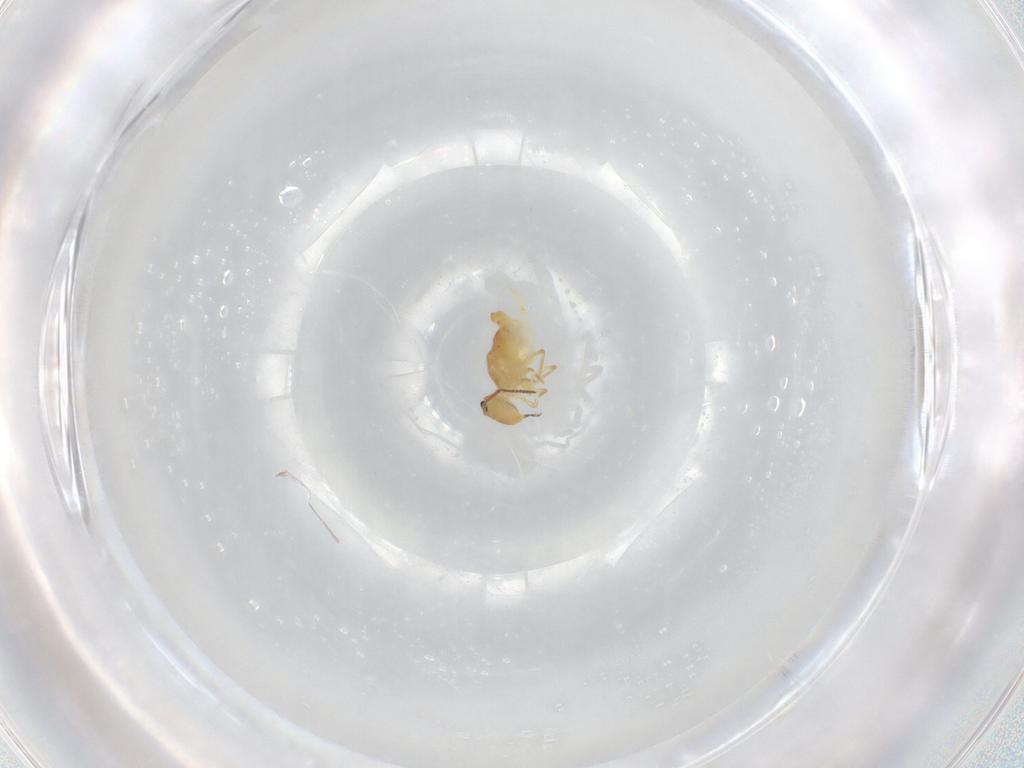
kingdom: Animalia
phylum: Arthropoda
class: Collembola
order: Symphypleona
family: Bourletiellidae
